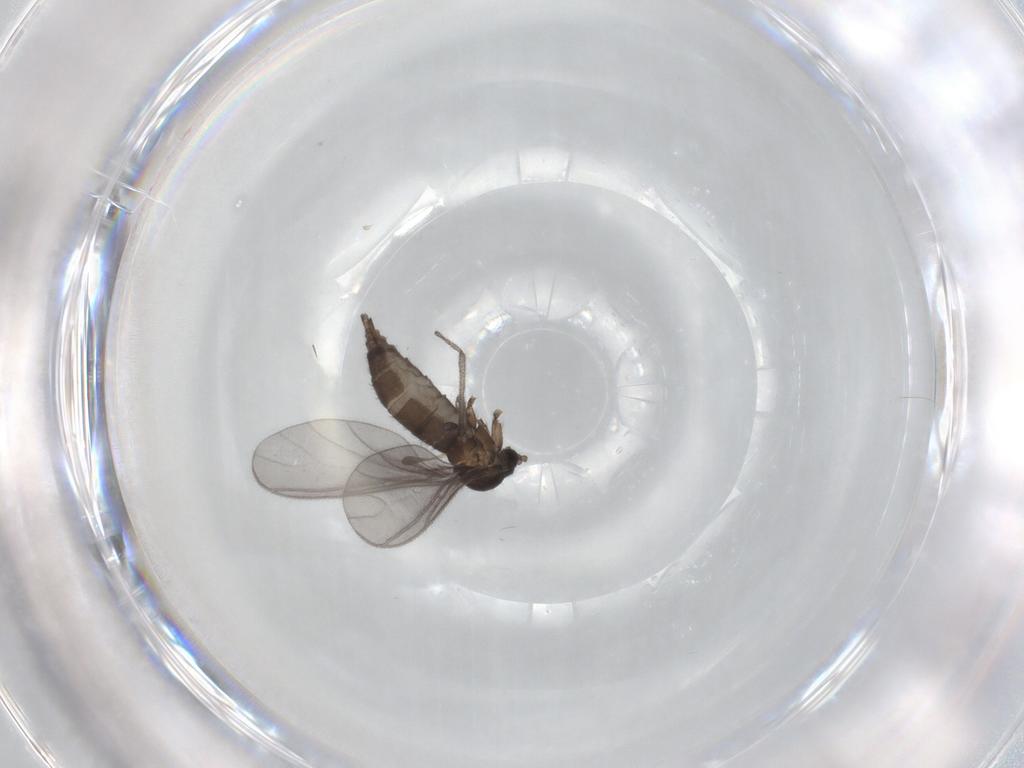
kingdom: Animalia
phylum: Arthropoda
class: Insecta
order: Diptera
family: Sciaridae
